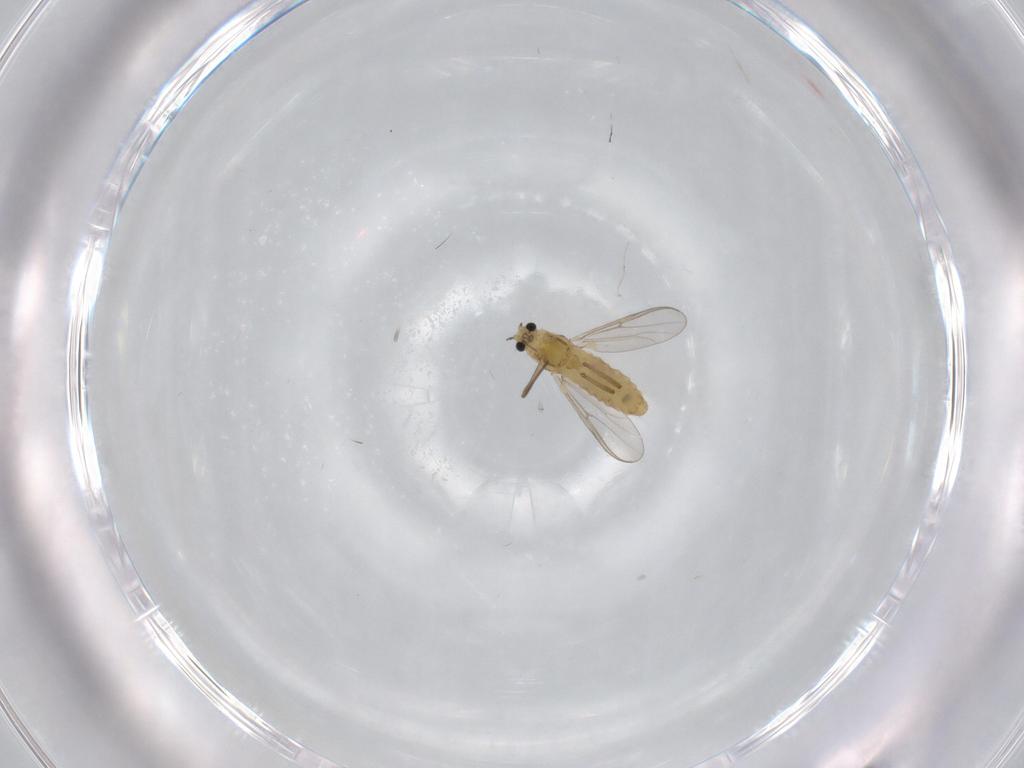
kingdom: Animalia
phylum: Arthropoda
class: Insecta
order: Diptera
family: Chironomidae
